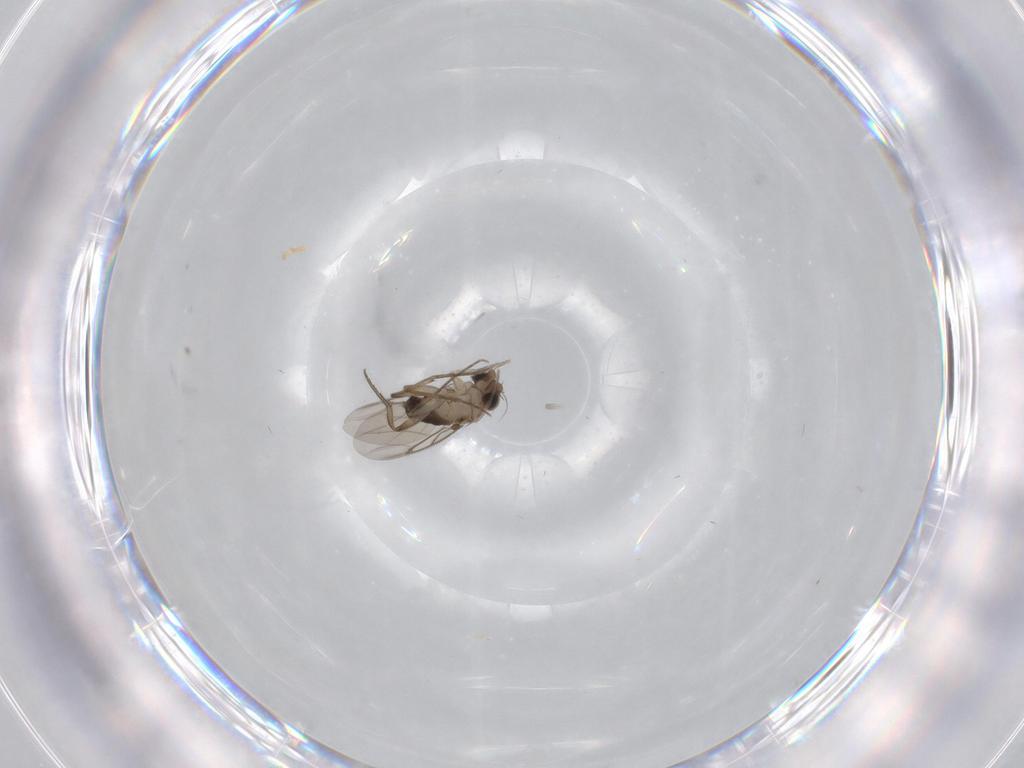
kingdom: Animalia
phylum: Arthropoda
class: Insecta
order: Diptera
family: Phoridae
